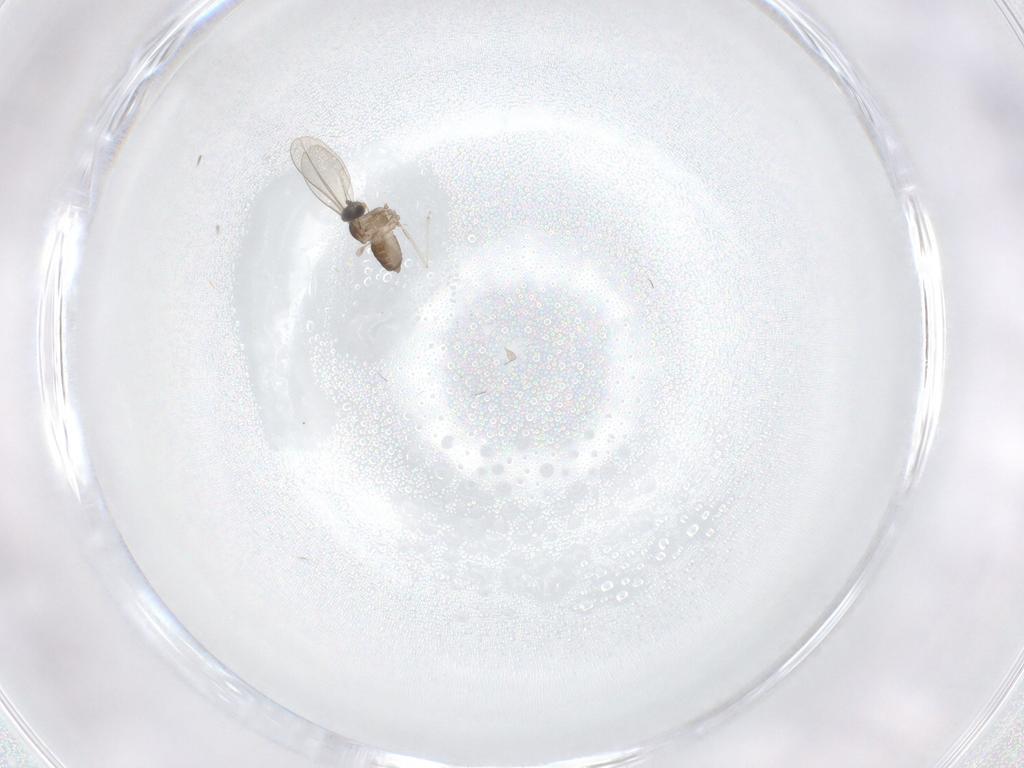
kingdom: Animalia
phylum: Arthropoda
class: Insecta
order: Diptera
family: Cecidomyiidae
